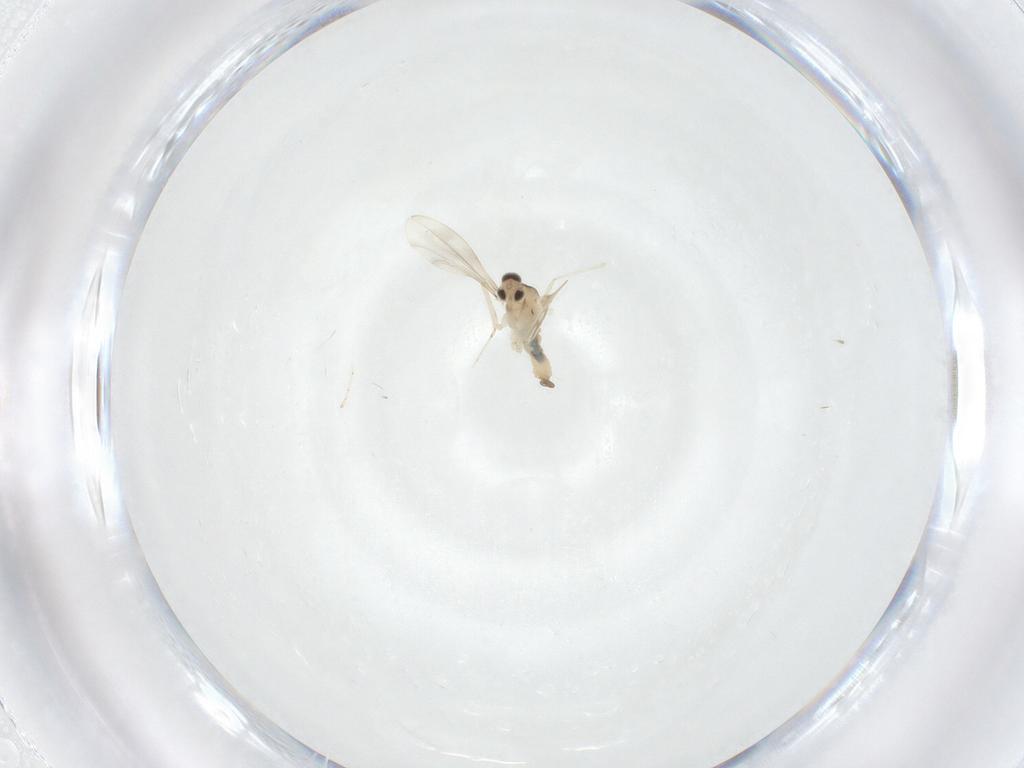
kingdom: Animalia
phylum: Arthropoda
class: Insecta
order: Diptera
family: Cecidomyiidae
